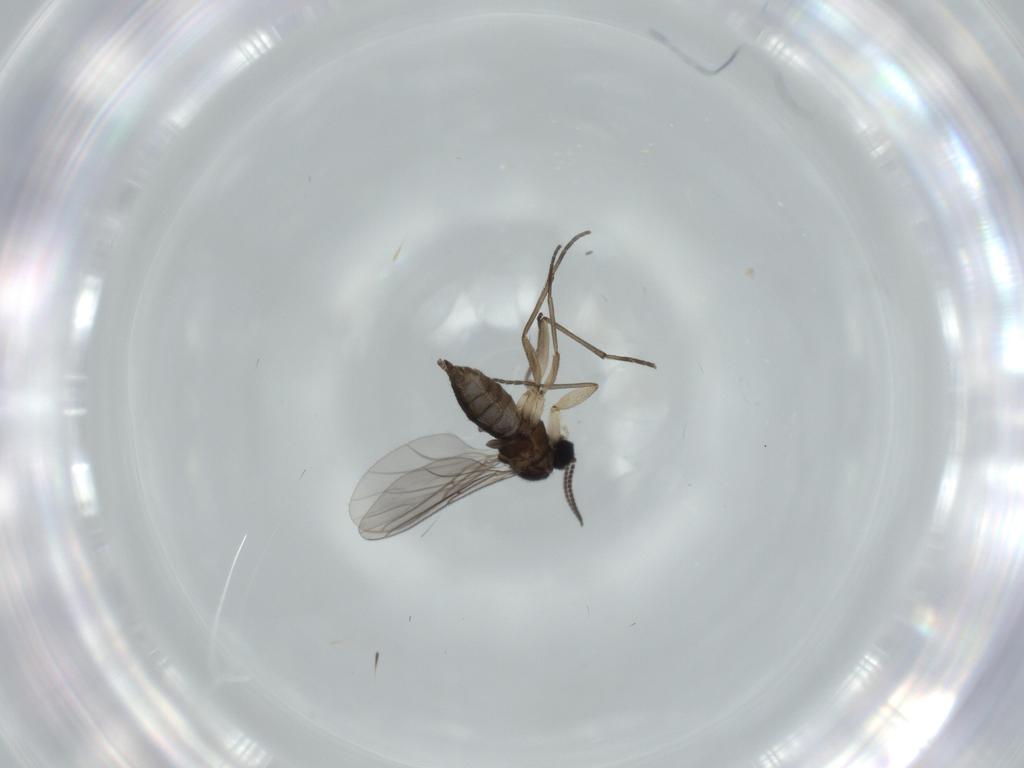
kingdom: Animalia
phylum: Arthropoda
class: Insecta
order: Diptera
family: Sciaridae
